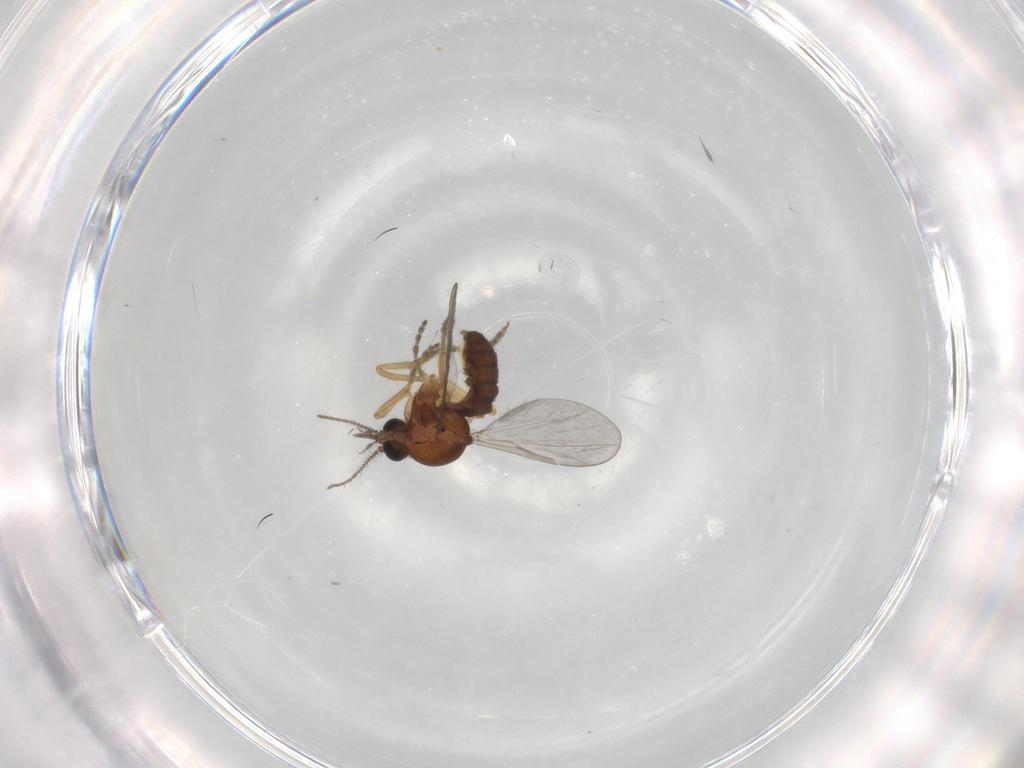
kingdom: Animalia
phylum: Arthropoda
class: Insecta
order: Diptera
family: Ceratopogonidae
